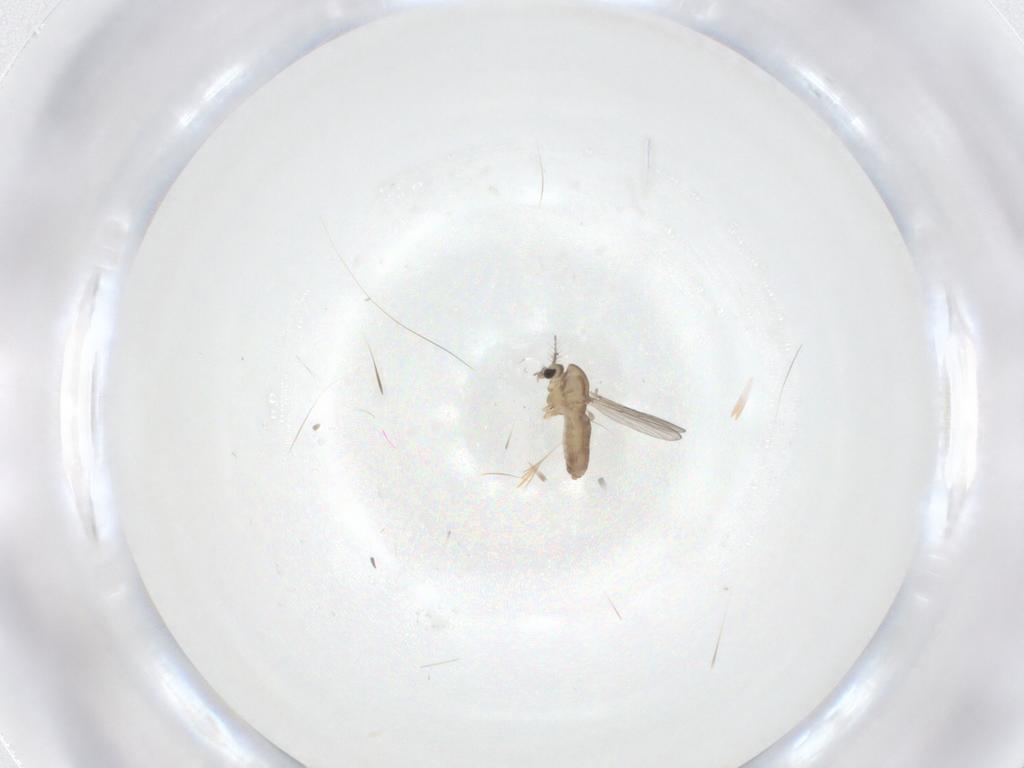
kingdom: Animalia
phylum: Arthropoda
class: Insecta
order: Diptera
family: Chironomidae
